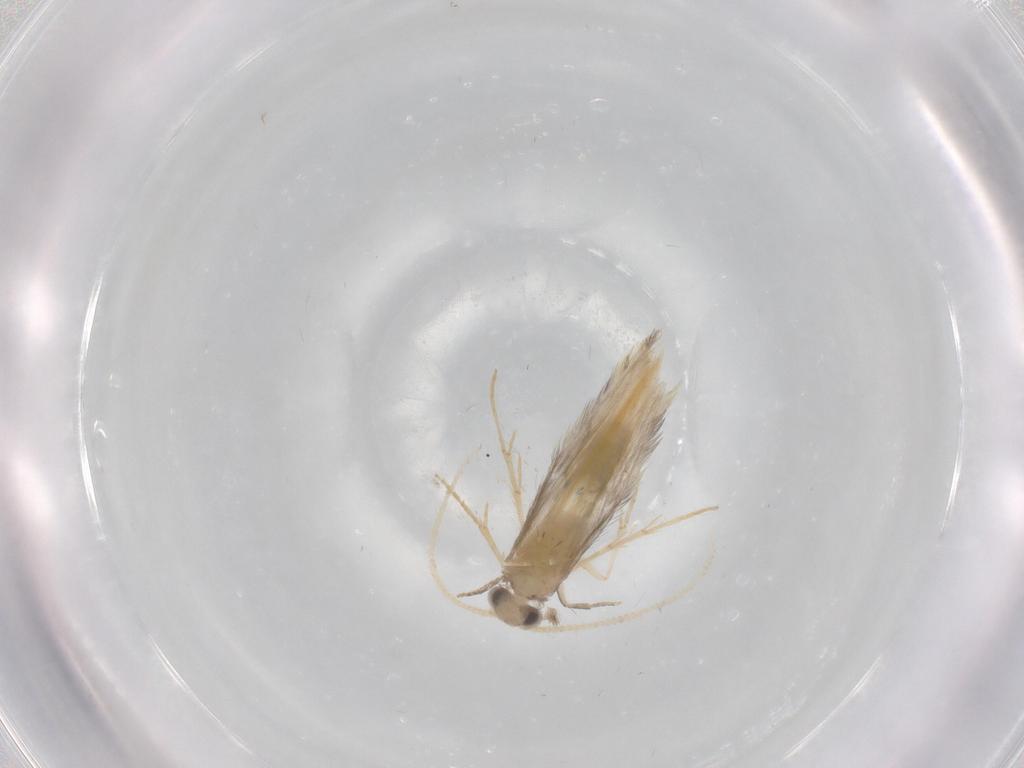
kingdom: Animalia
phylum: Arthropoda
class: Insecta
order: Trichoptera
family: Hydroptilidae
